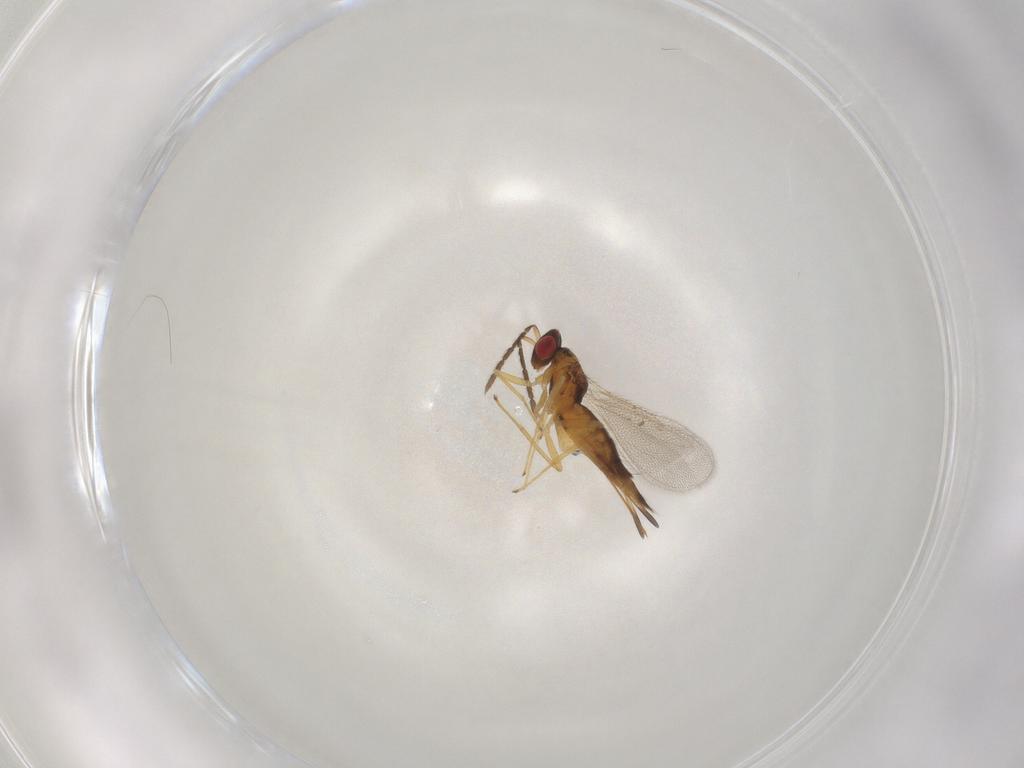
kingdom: Animalia
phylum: Arthropoda
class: Insecta
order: Hymenoptera
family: Eulophidae
